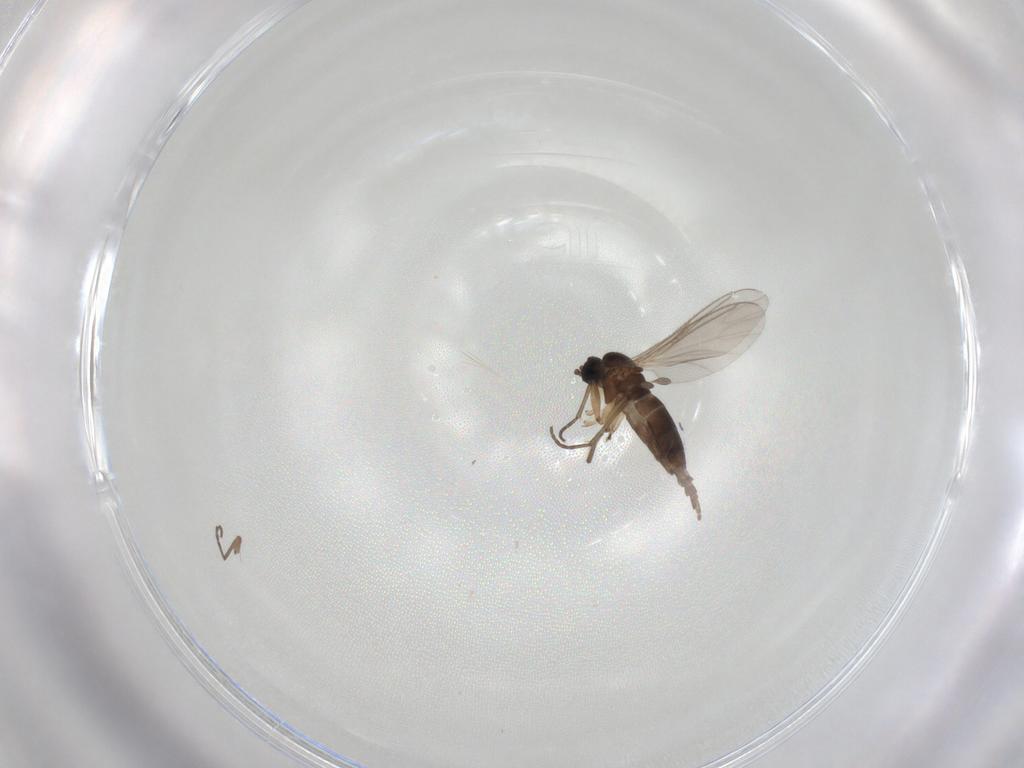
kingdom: Animalia
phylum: Arthropoda
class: Insecta
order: Diptera
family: Sciaridae
